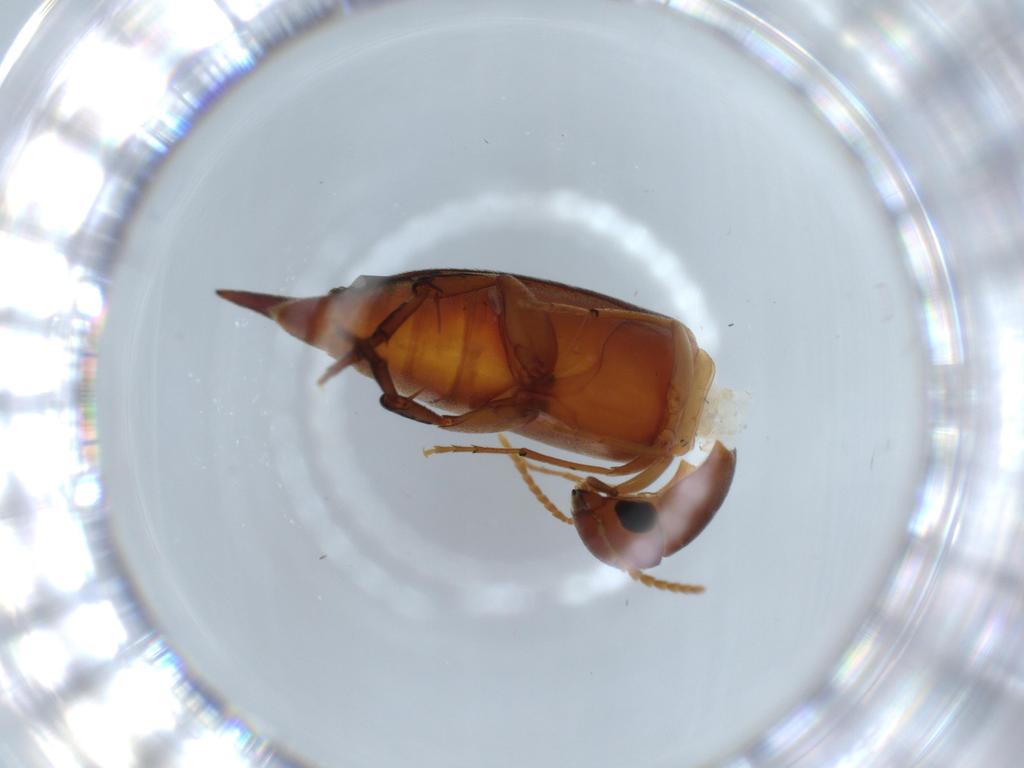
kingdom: Animalia
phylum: Arthropoda
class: Insecta
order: Coleoptera
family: Mordellidae
